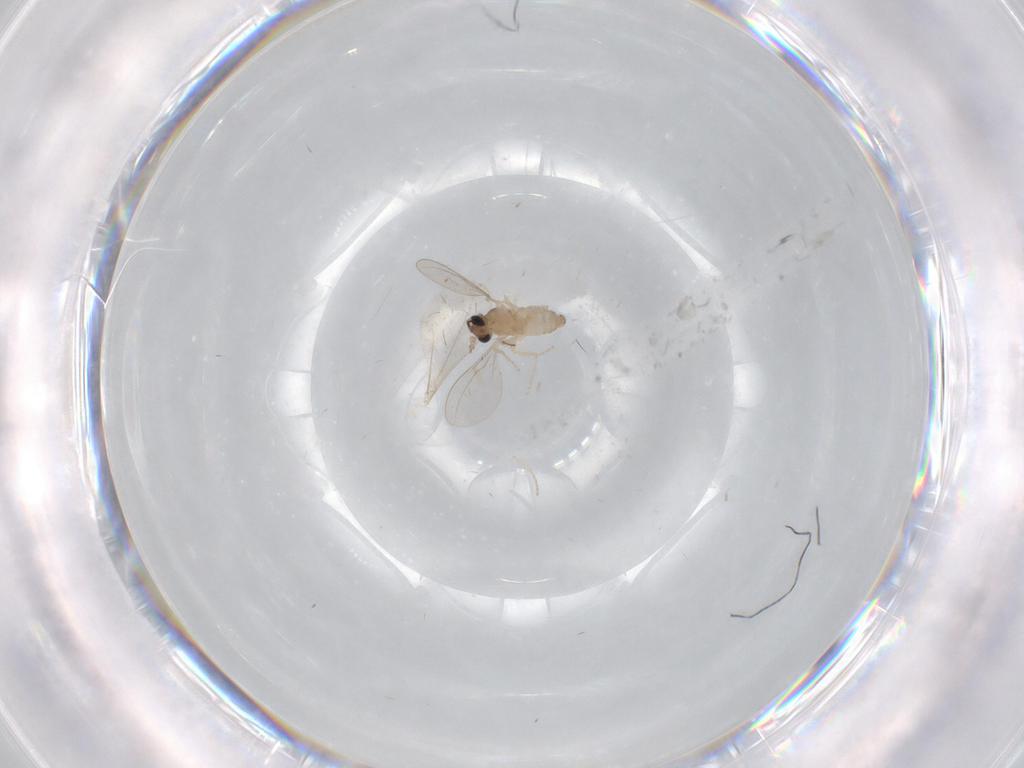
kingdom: Animalia
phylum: Arthropoda
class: Insecta
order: Diptera
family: Cecidomyiidae
